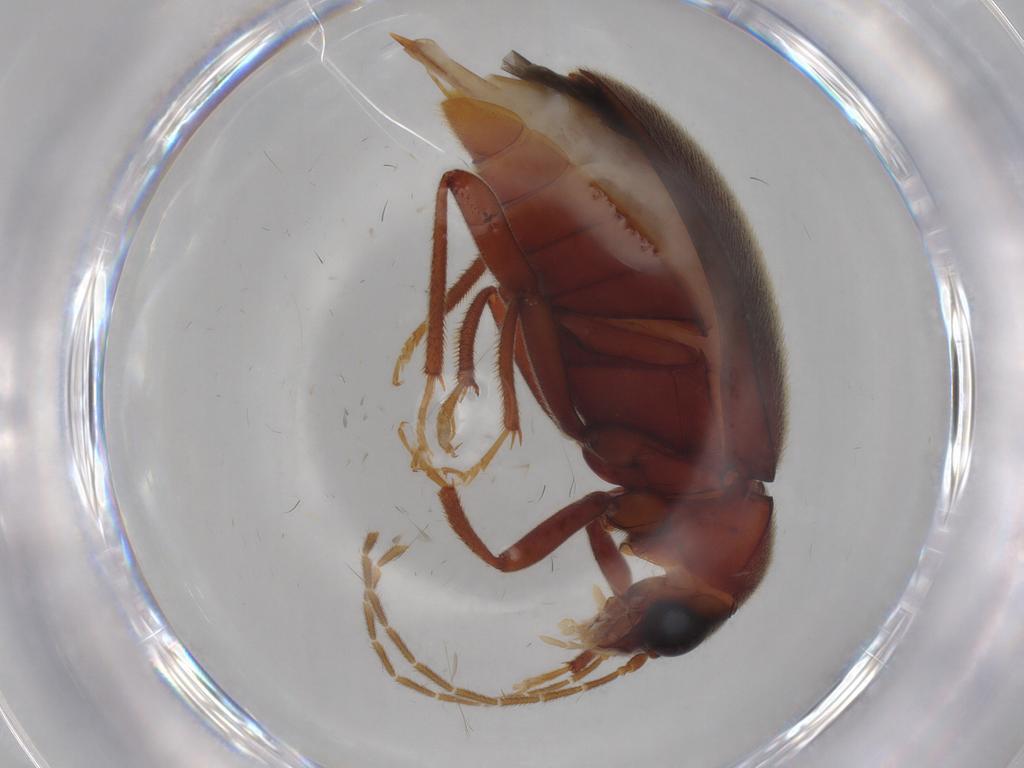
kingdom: Animalia
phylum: Arthropoda
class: Insecta
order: Coleoptera
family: Ptilodactylidae
